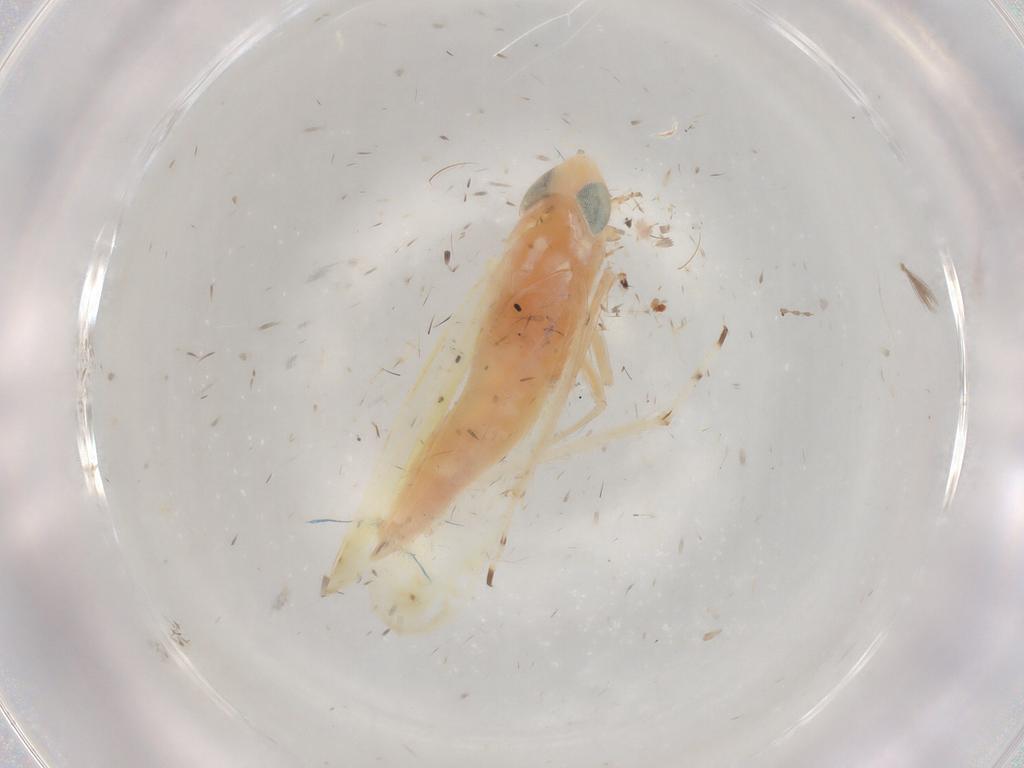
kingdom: Animalia
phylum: Arthropoda
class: Insecta
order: Hemiptera
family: Cicadellidae
